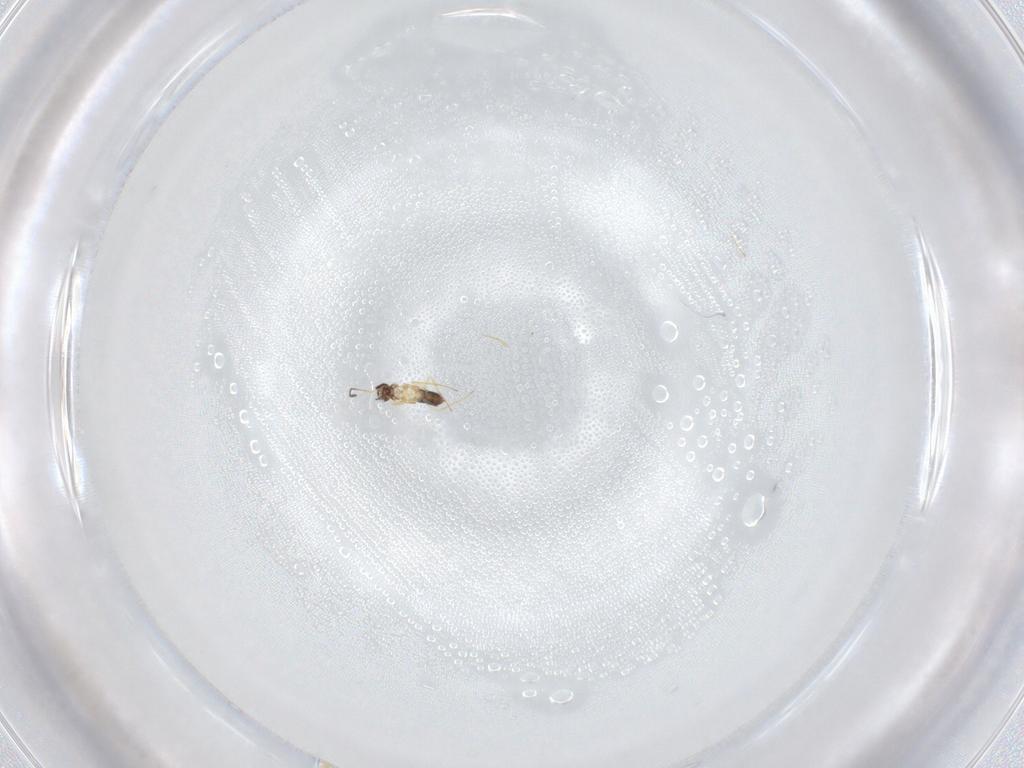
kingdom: Animalia
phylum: Arthropoda
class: Insecta
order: Hymenoptera
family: Mymaridae
